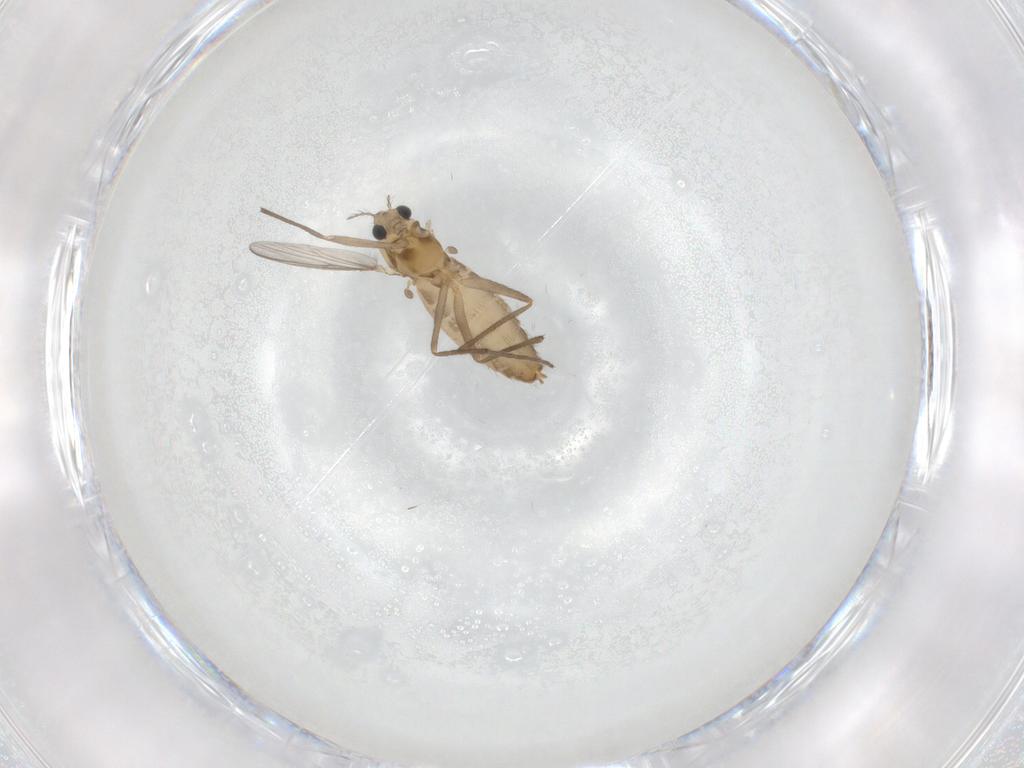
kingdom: Animalia
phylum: Arthropoda
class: Insecta
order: Diptera
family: Chironomidae
